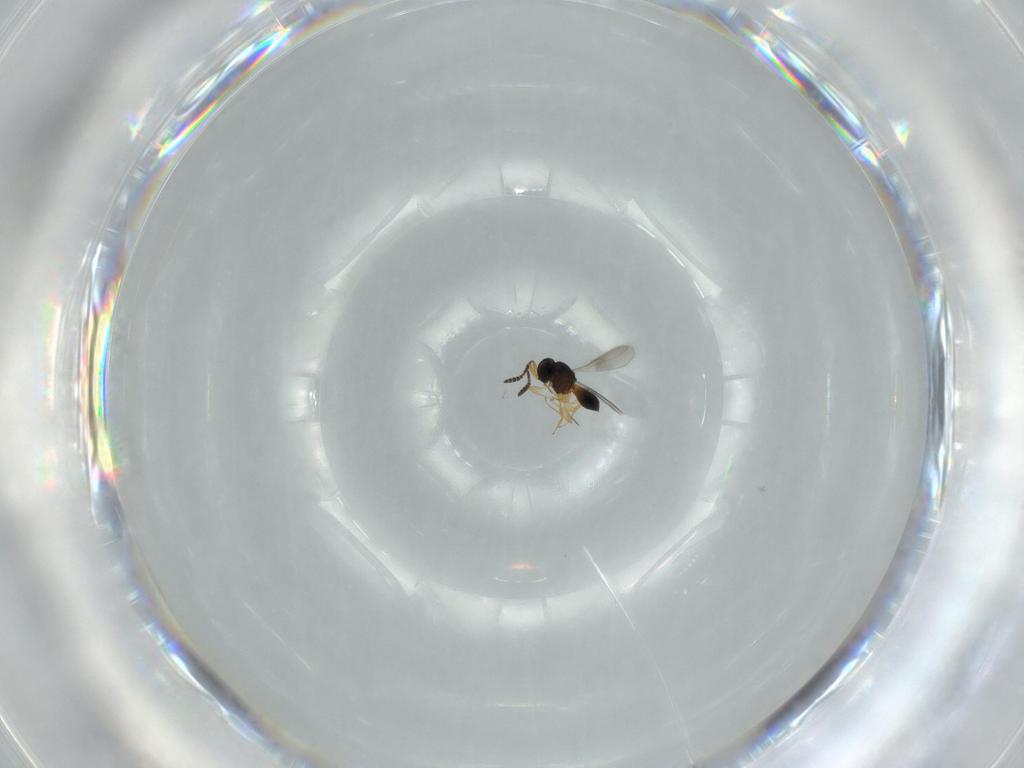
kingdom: Animalia
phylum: Arthropoda
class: Insecta
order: Hymenoptera
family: Scelionidae
